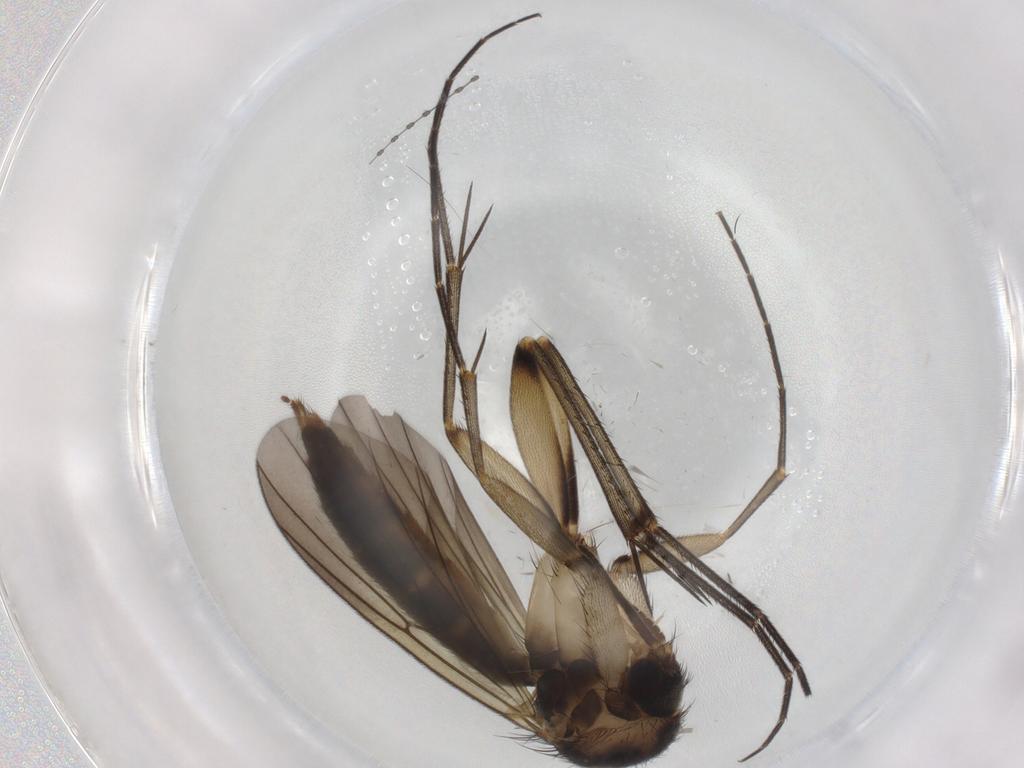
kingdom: Animalia
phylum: Arthropoda
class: Insecta
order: Diptera
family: Mycetophilidae
